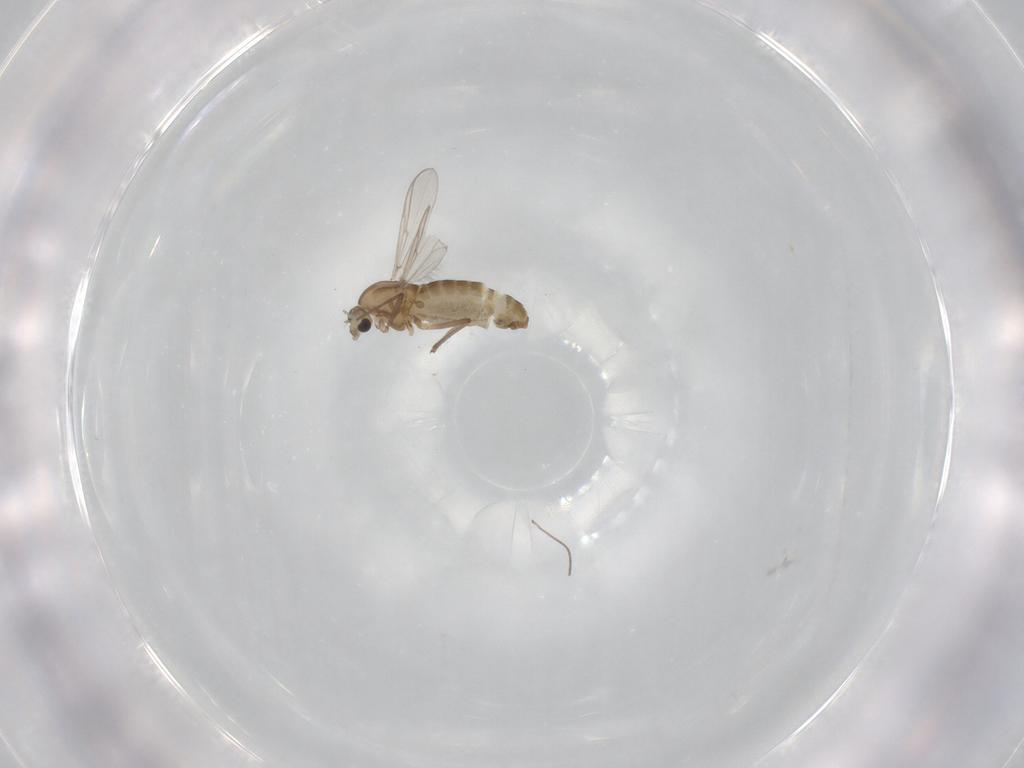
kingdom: Animalia
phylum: Arthropoda
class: Insecta
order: Diptera
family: Chironomidae
